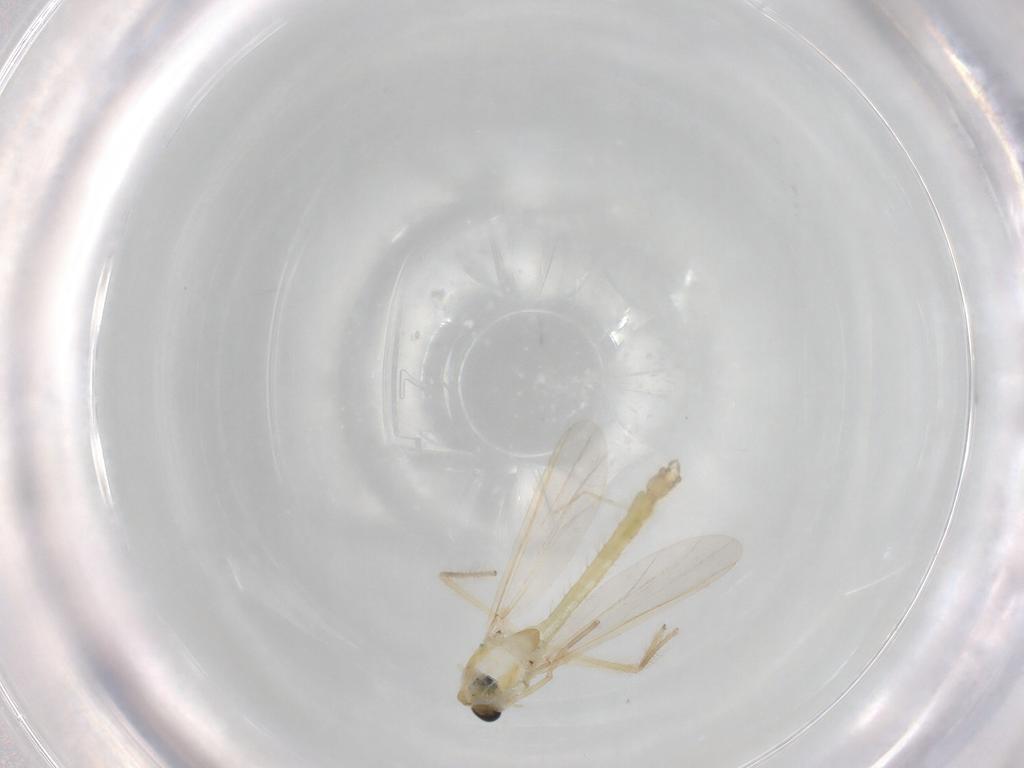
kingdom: Animalia
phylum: Arthropoda
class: Insecta
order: Diptera
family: Chironomidae
